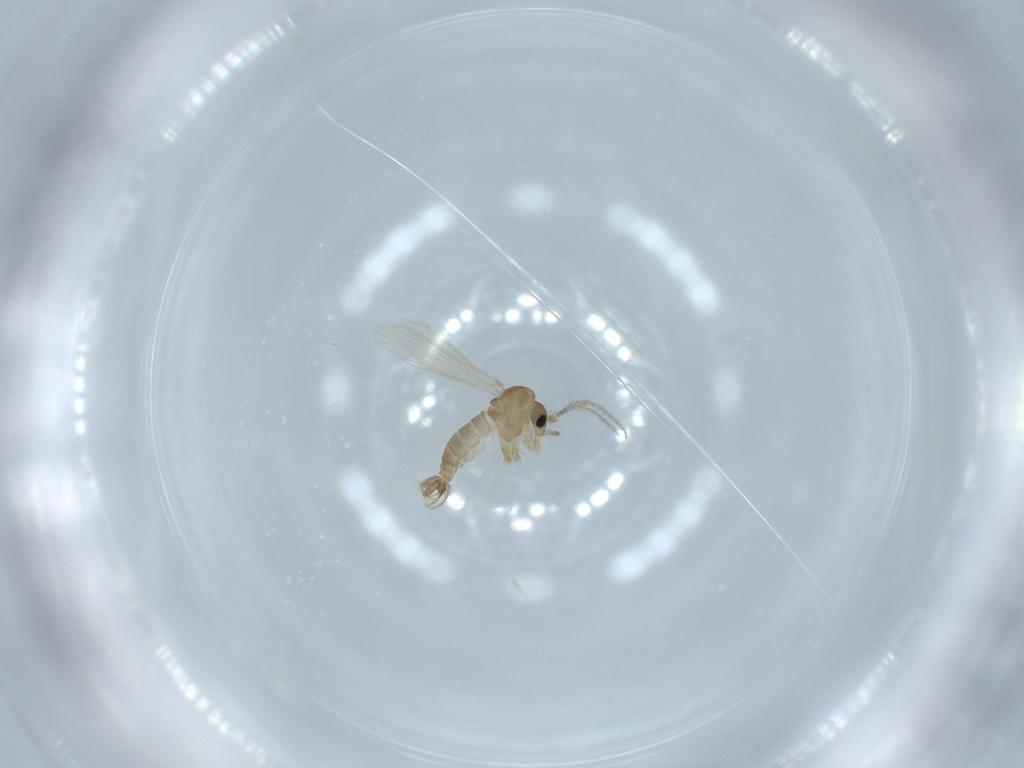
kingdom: Animalia
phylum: Arthropoda
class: Insecta
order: Diptera
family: Psychodidae
